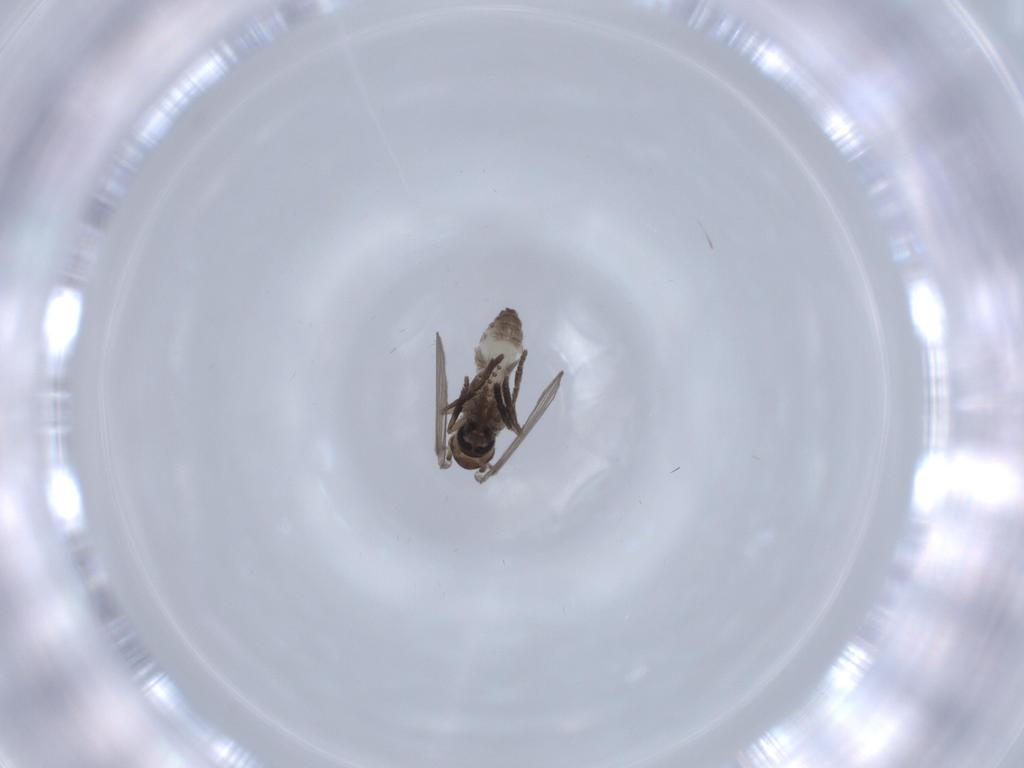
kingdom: Animalia
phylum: Arthropoda
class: Insecta
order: Diptera
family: Psychodidae
